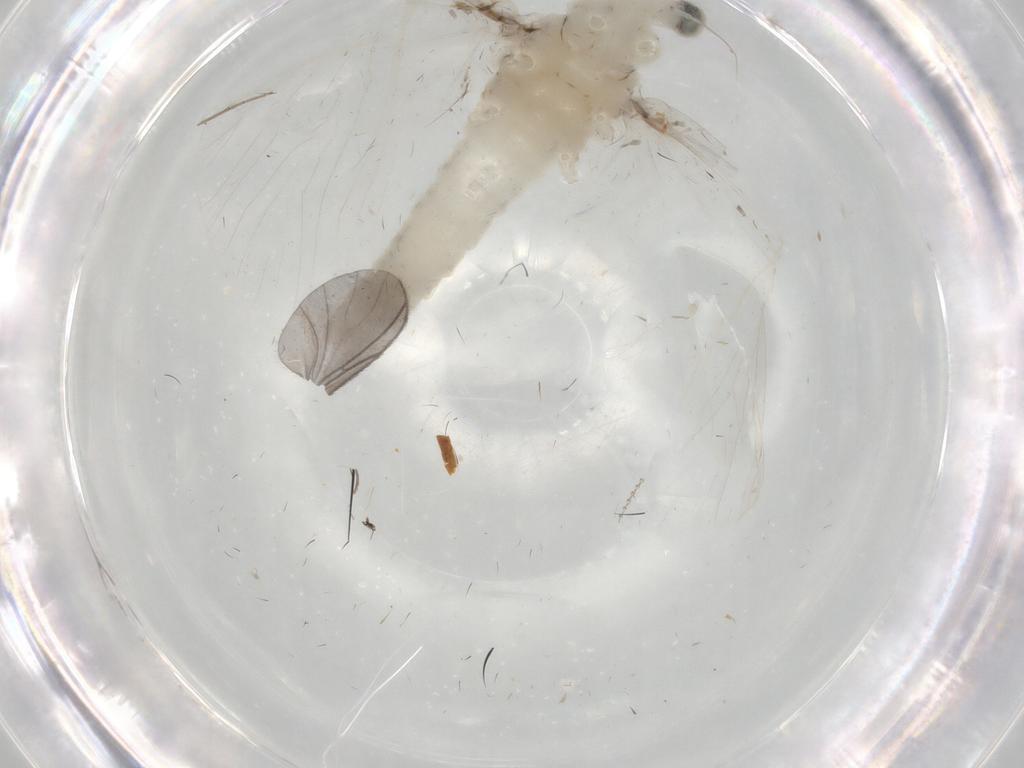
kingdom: Animalia
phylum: Arthropoda
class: Insecta
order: Ephemeroptera
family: Baetidae
